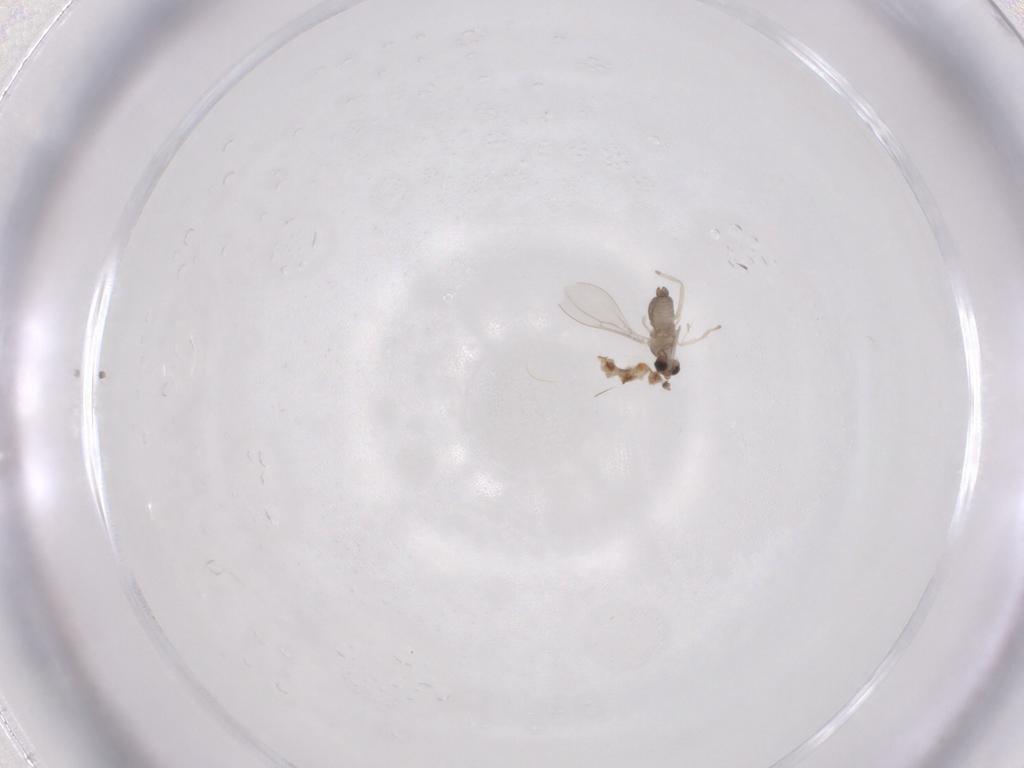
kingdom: Animalia
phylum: Arthropoda
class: Insecta
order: Diptera
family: Cecidomyiidae
